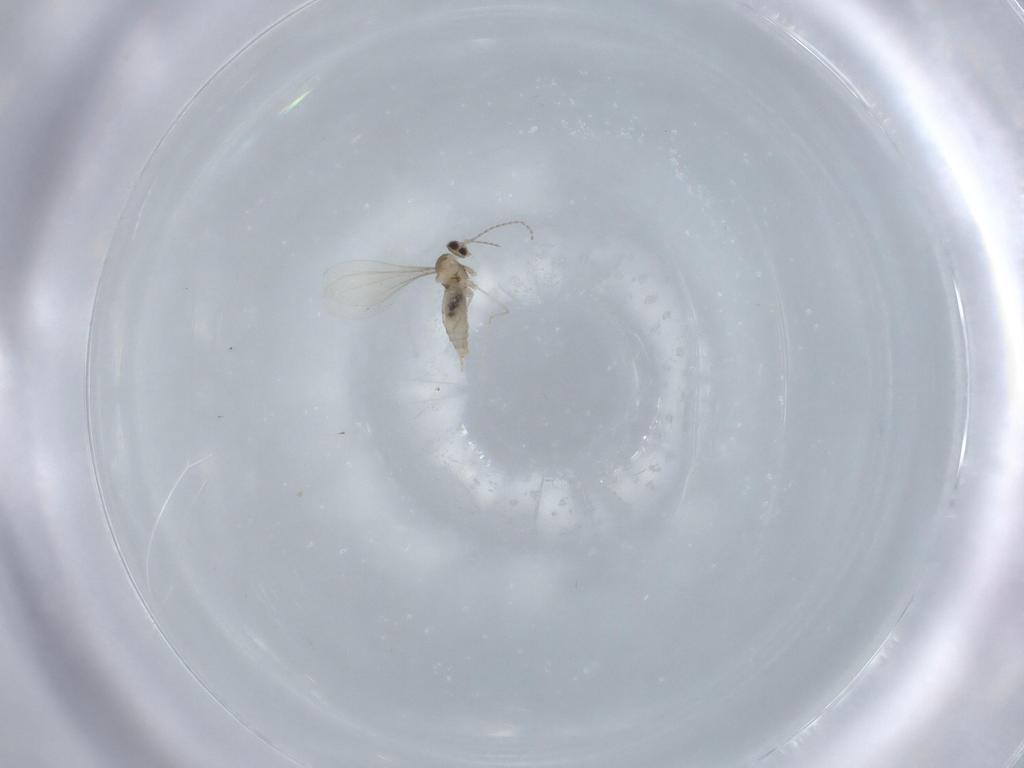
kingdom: Animalia
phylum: Arthropoda
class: Insecta
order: Diptera
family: Cecidomyiidae
